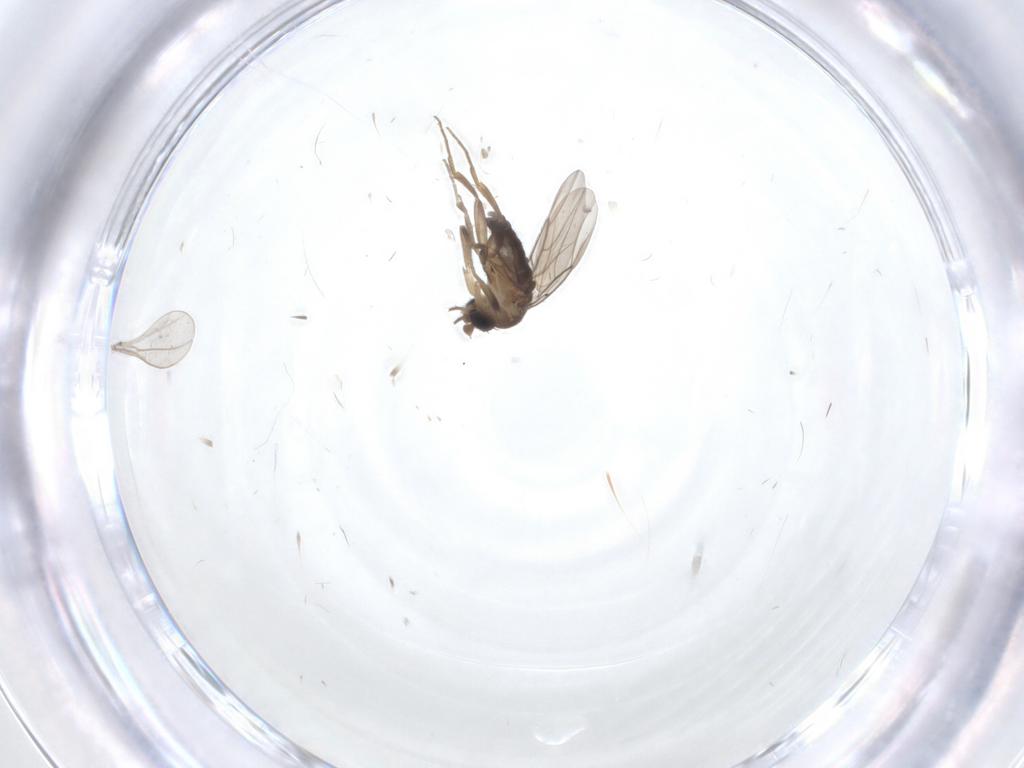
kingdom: Animalia
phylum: Arthropoda
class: Insecta
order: Diptera
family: Phoridae
